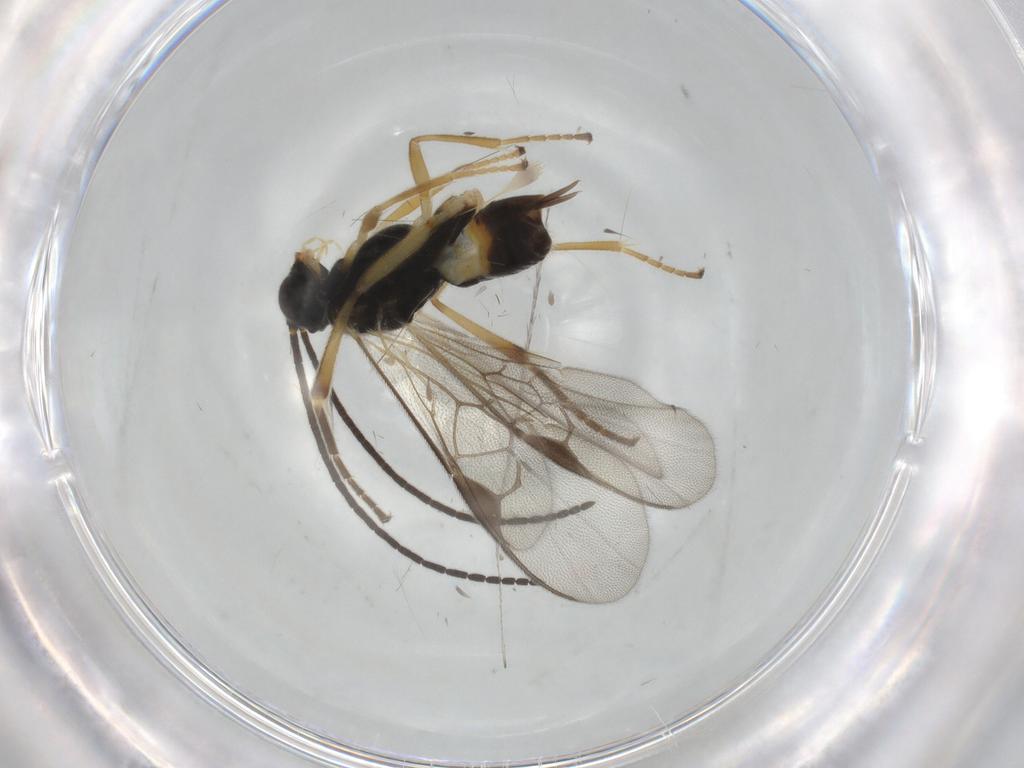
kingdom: Animalia
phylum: Arthropoda
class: Insecta
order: Hymenoptera
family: Braconidae
